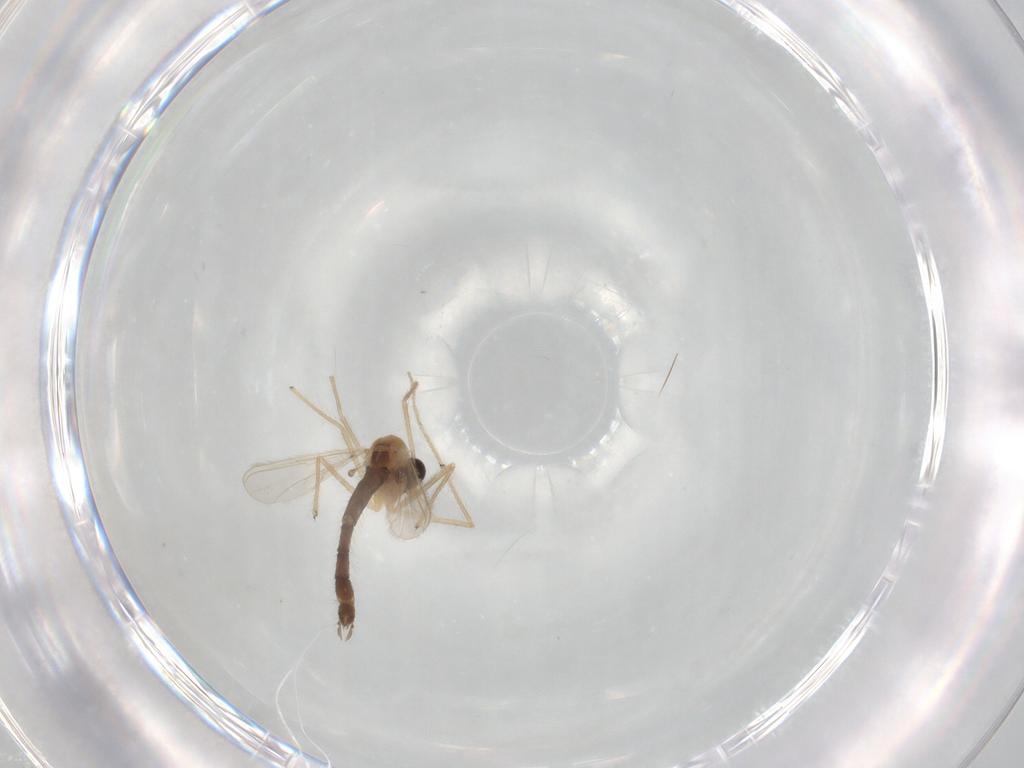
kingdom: Animalia
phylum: Arthropoda
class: Insecta
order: Diptera
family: Chironomidae
